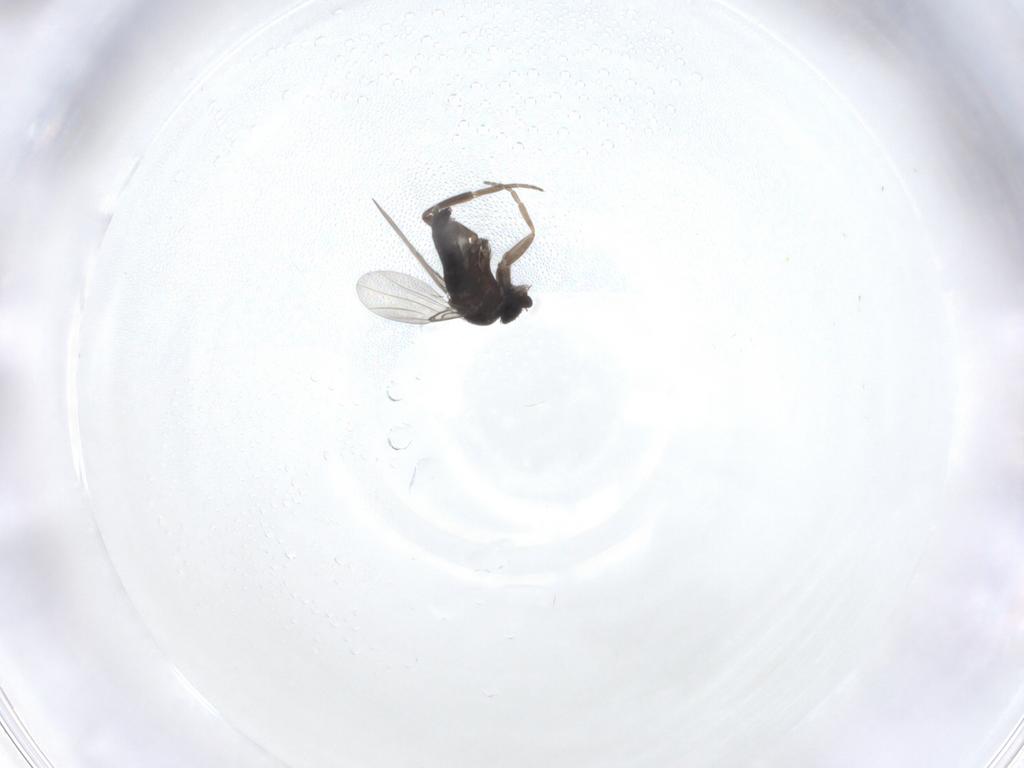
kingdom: Animalia
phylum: Arthropoda
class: Insecta
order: Diptera
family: Phoridae
